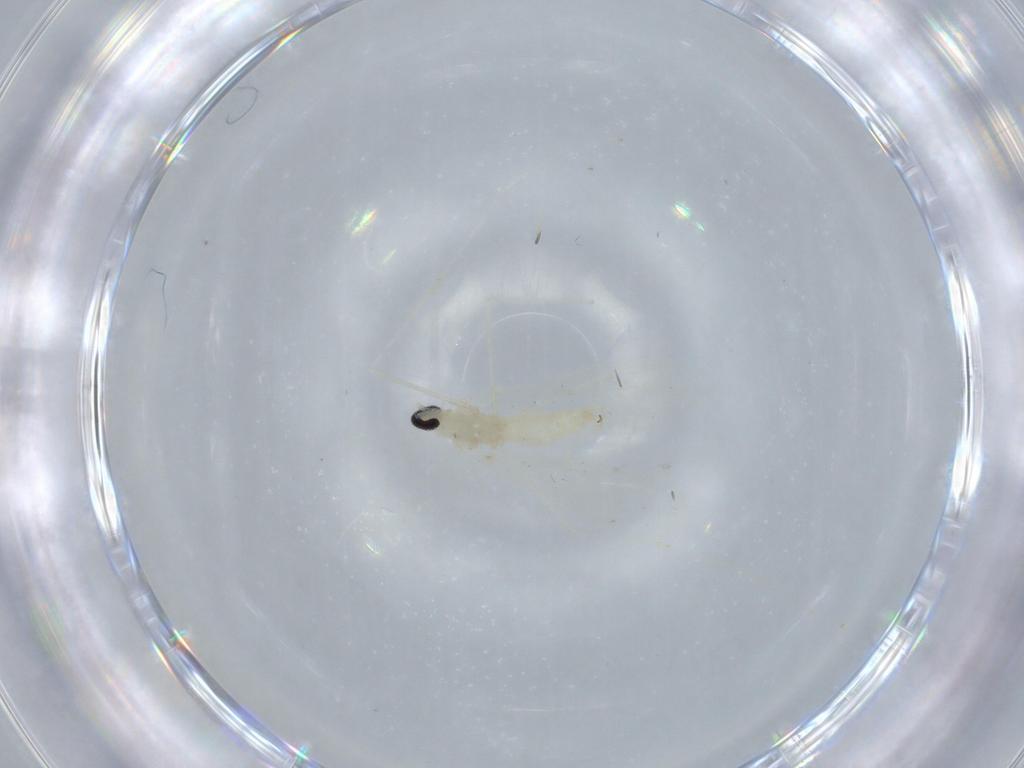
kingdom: Animalia
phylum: Arthropoda
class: Insecta
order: Diptera
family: Cecidomyiidae
